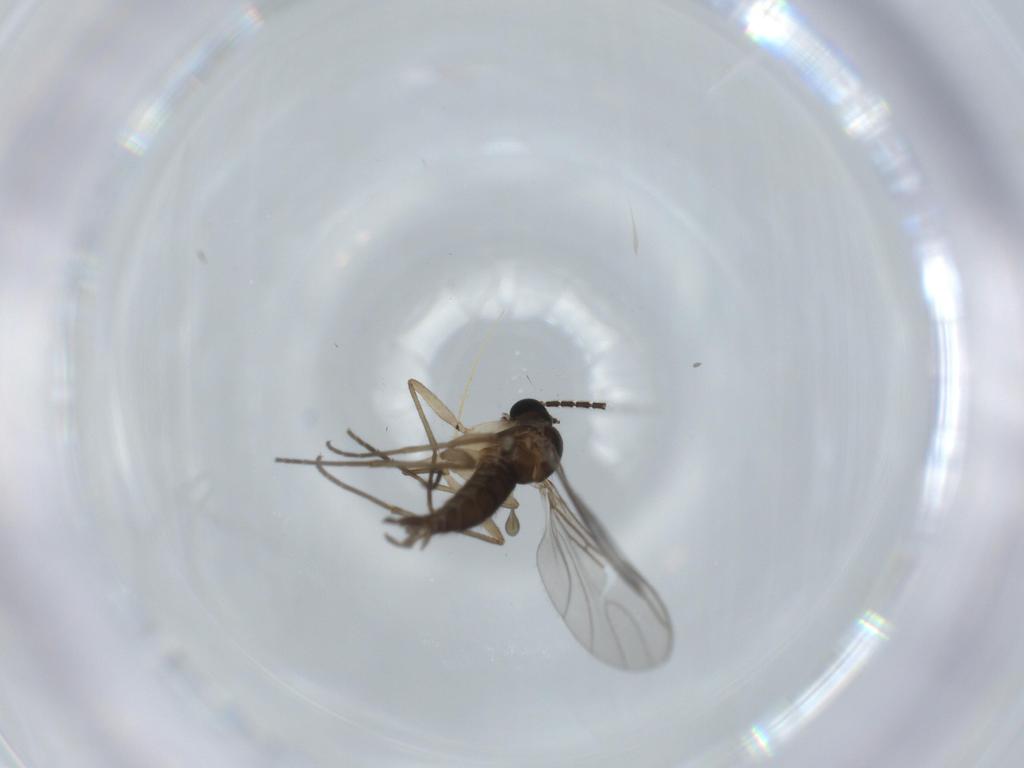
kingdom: Animalia
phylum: Arthropoda
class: Insecta
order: Diptera
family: Sciaridae
